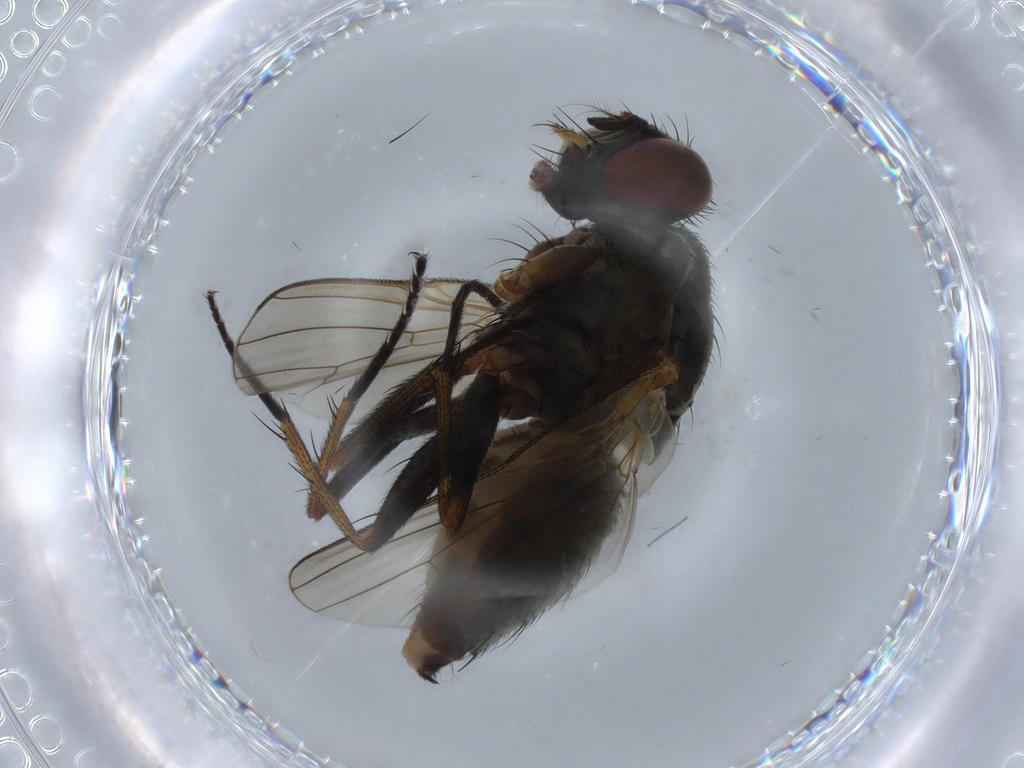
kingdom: Animalia
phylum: Arthropoda
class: Insecta
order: Diptera
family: Muscidae
